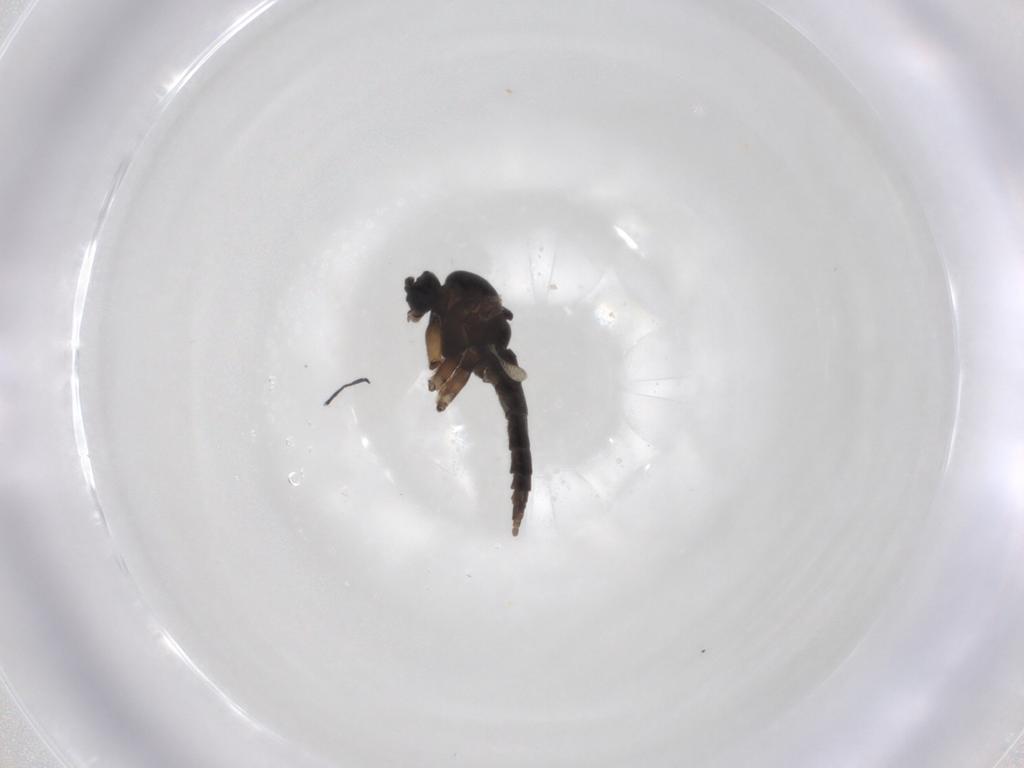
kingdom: Animalia
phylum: Arthropoda
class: Insecta
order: Diptera
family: Sciaridae
